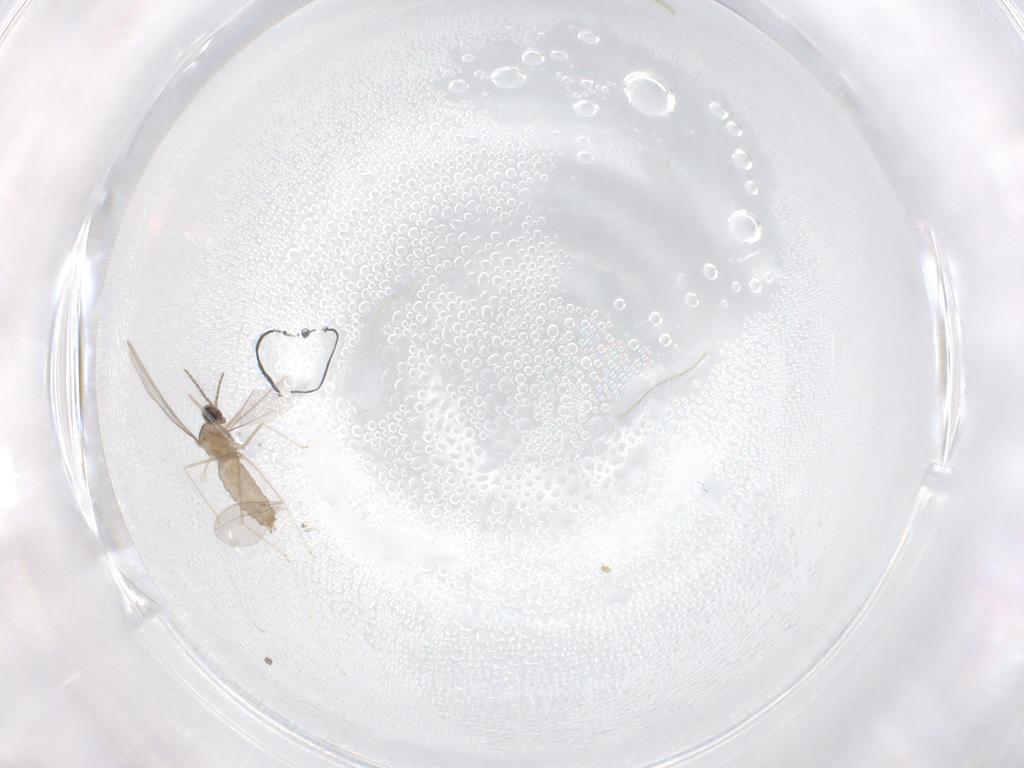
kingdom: Animalia
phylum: Arthropoda
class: Insecta
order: Diptera
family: Cecidomyiidae
